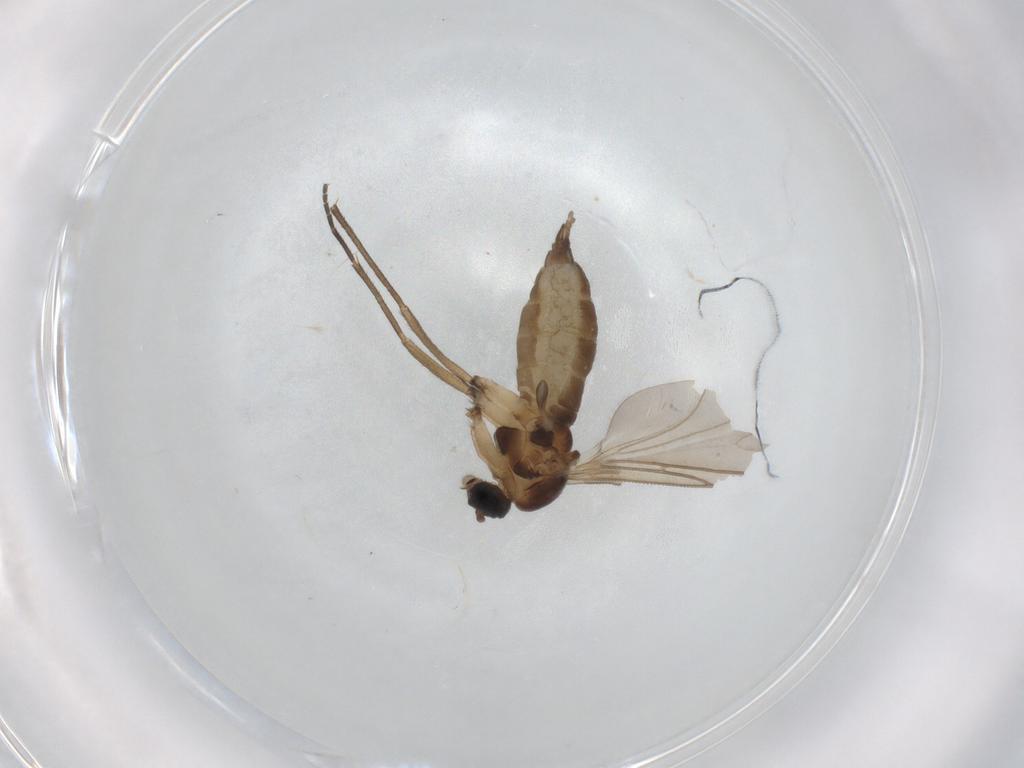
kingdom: Animalia
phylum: Arthropoda
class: Insecta
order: Diptera
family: Sciaridae
